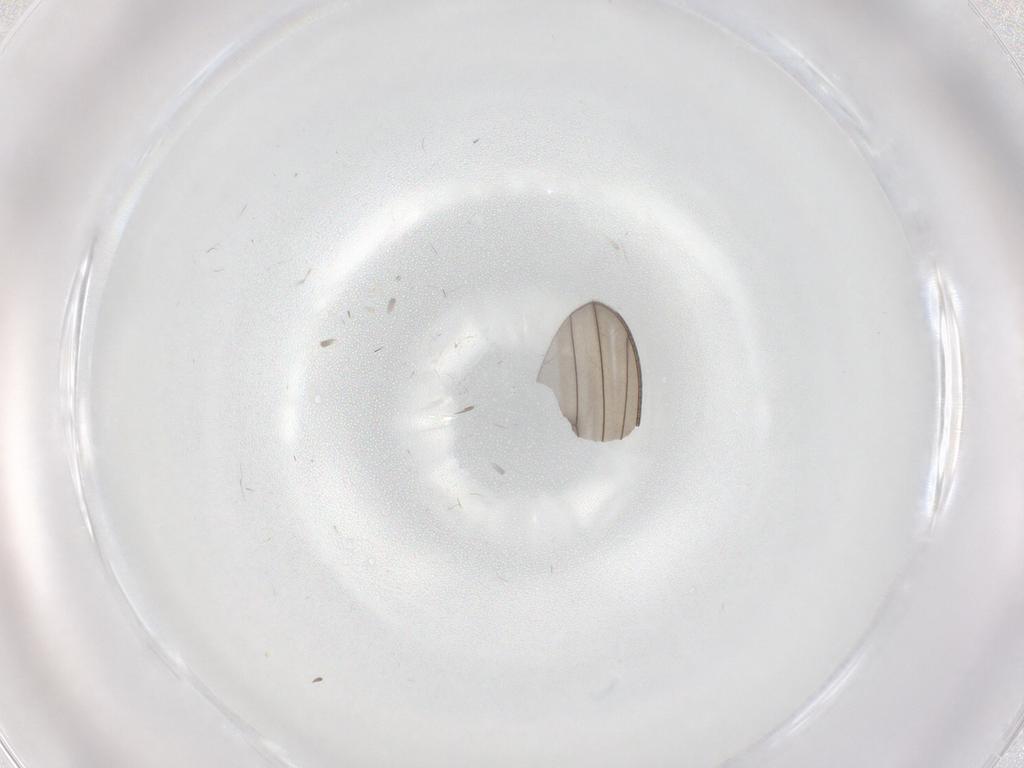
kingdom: Animalia
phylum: Arthropoda
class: Insecta
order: Diptera
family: Drosophilidae
